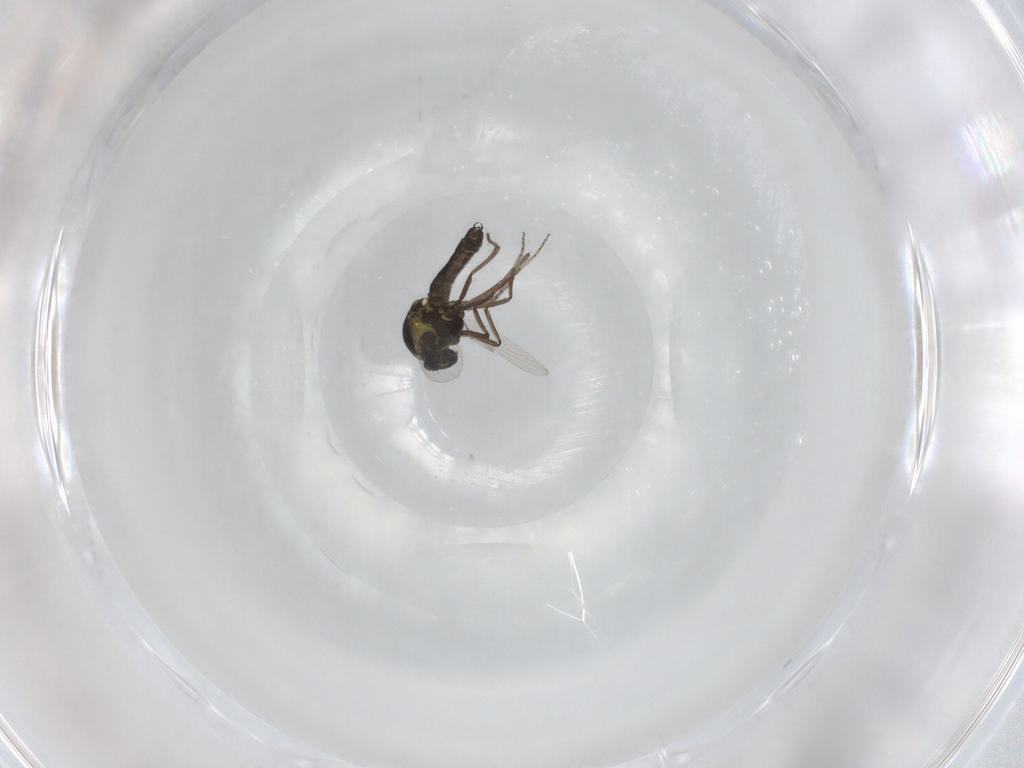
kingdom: Animalia
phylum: Arthropoda
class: Insecta
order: Diptera
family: Ceratopogonidae
